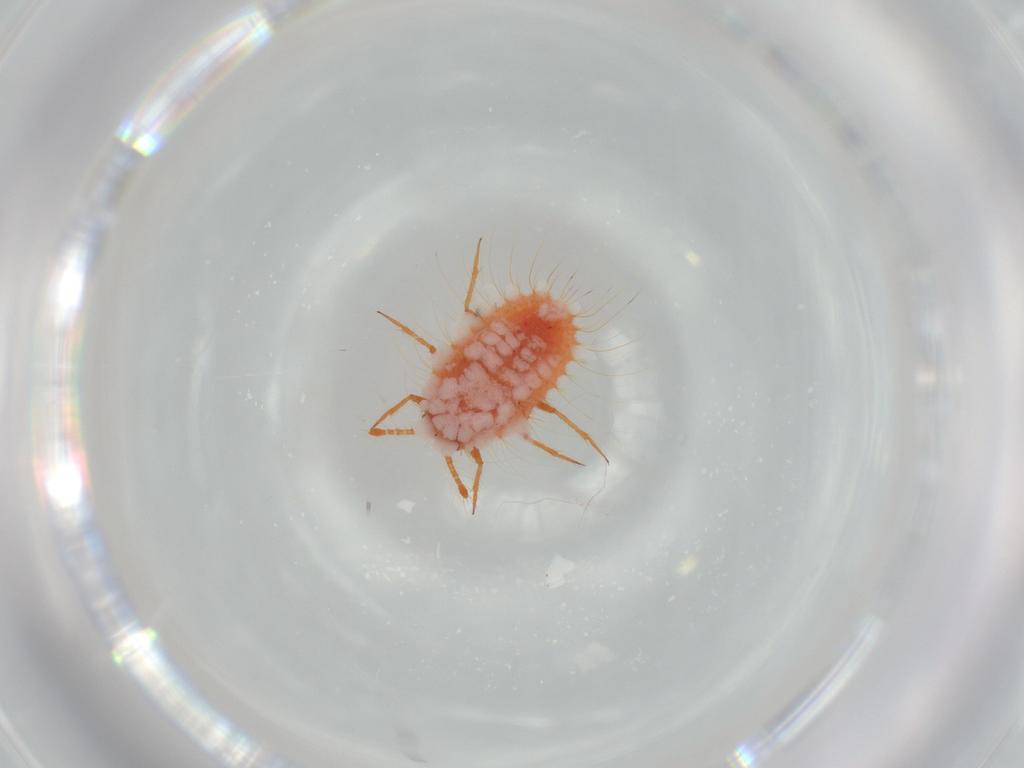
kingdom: Animalia
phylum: Arthropoda
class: Insecta
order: Hemiptera
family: Coccoidea_incertae_sedis
